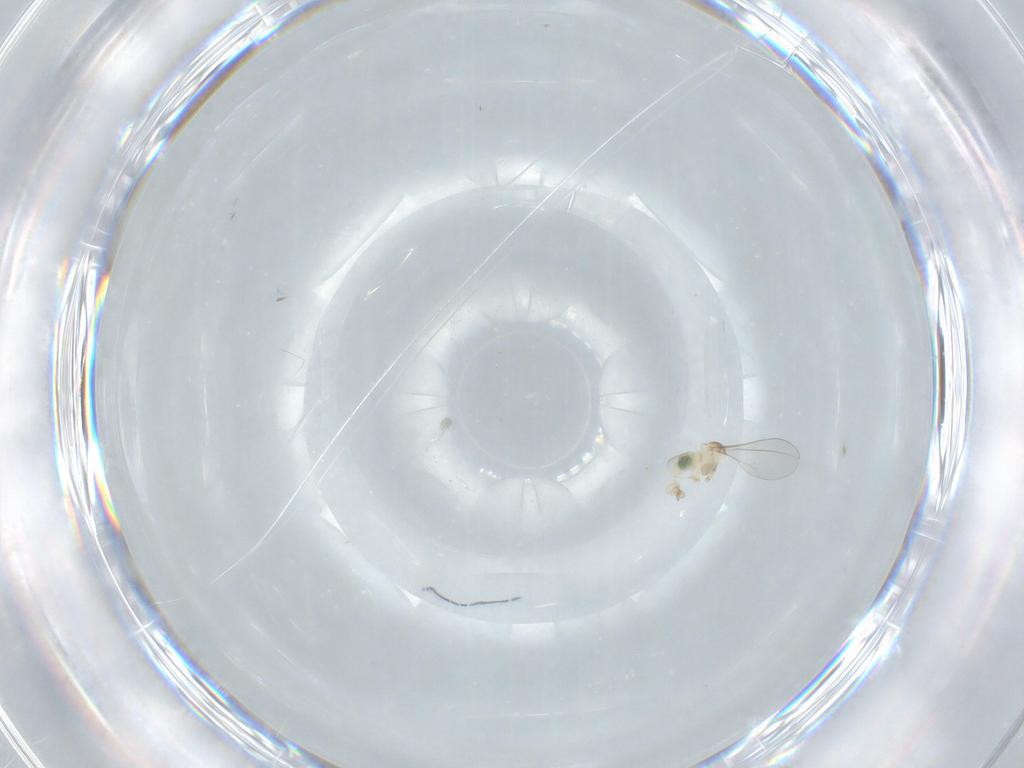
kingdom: Animalia
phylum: Arthropoda
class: Insecta
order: Diptera
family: Cecidomyiidae
